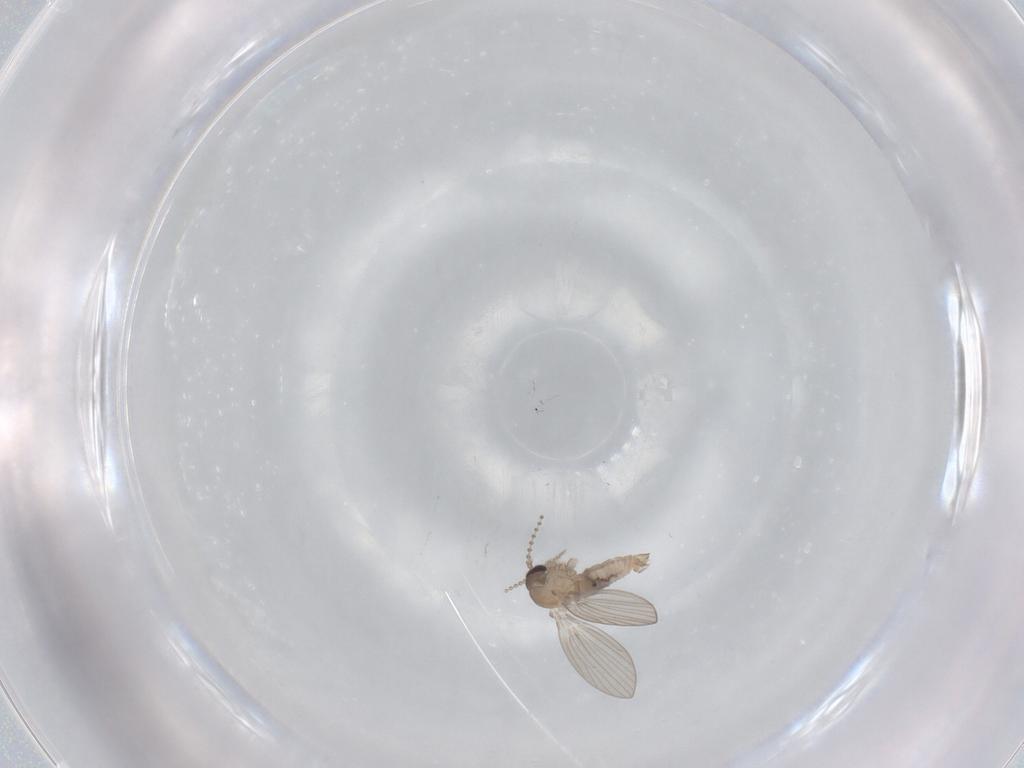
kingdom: Animalia
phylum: Arthropoda
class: Insecta
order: Diptera
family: Psychodidae
